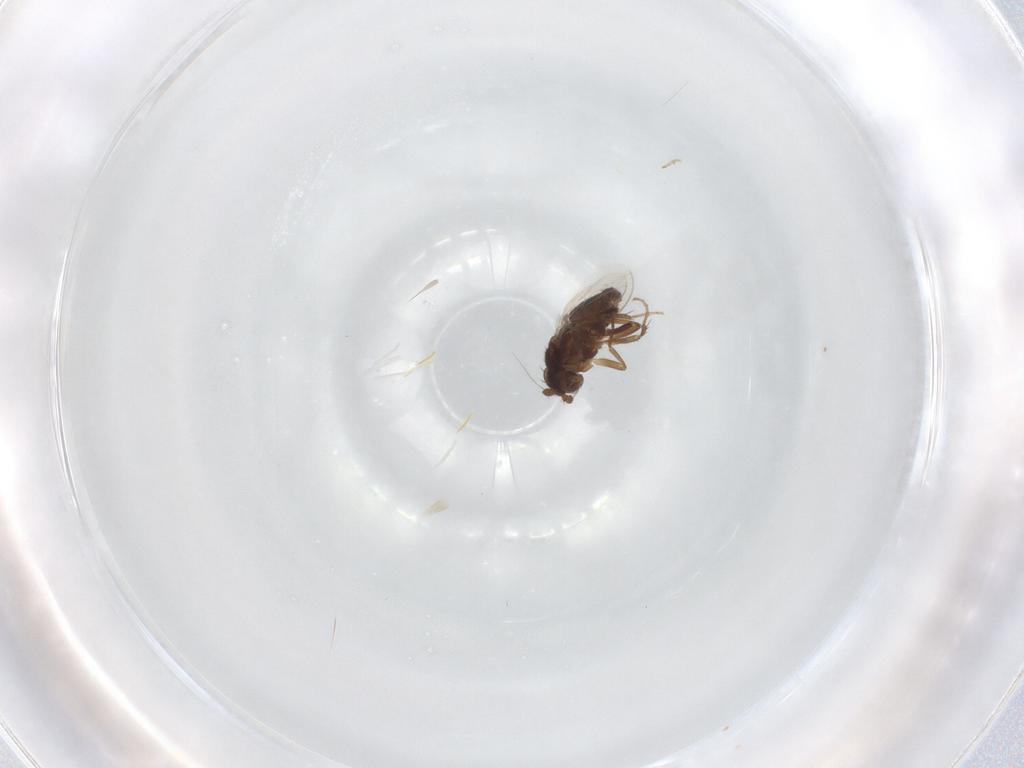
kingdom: Animalia
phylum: Arthropoda
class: Insecta
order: Diptera
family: Sphaeroceridae
